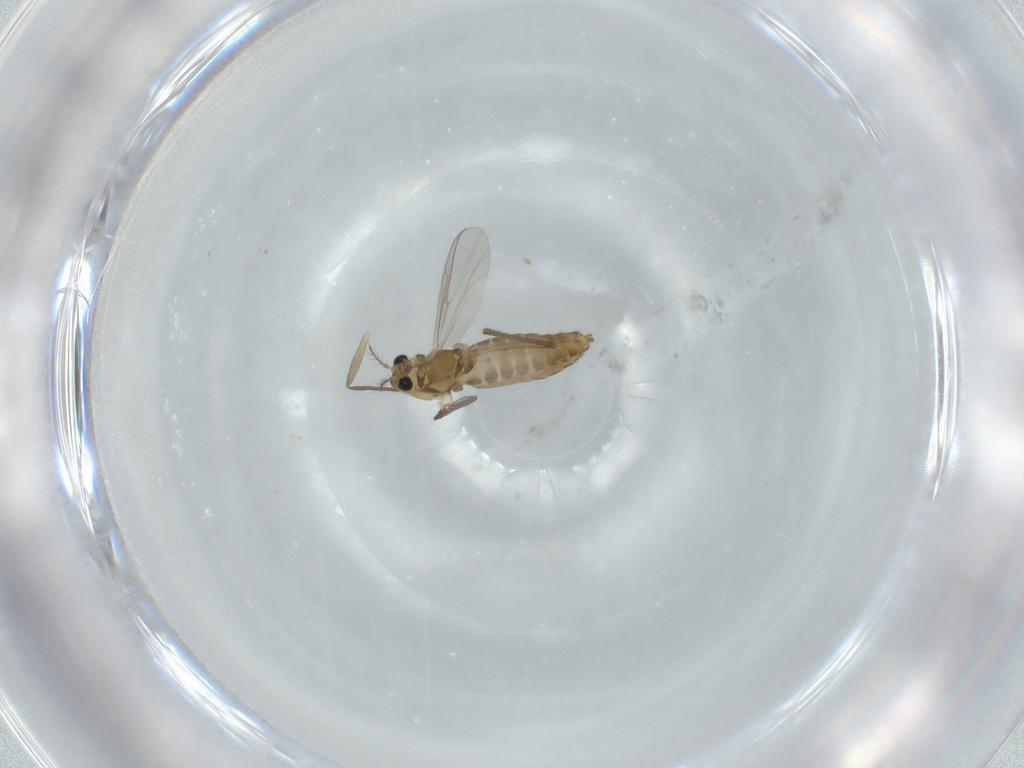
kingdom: Animalia
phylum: Arthropoda
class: Insecta
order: Diptera
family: Chironomidae
